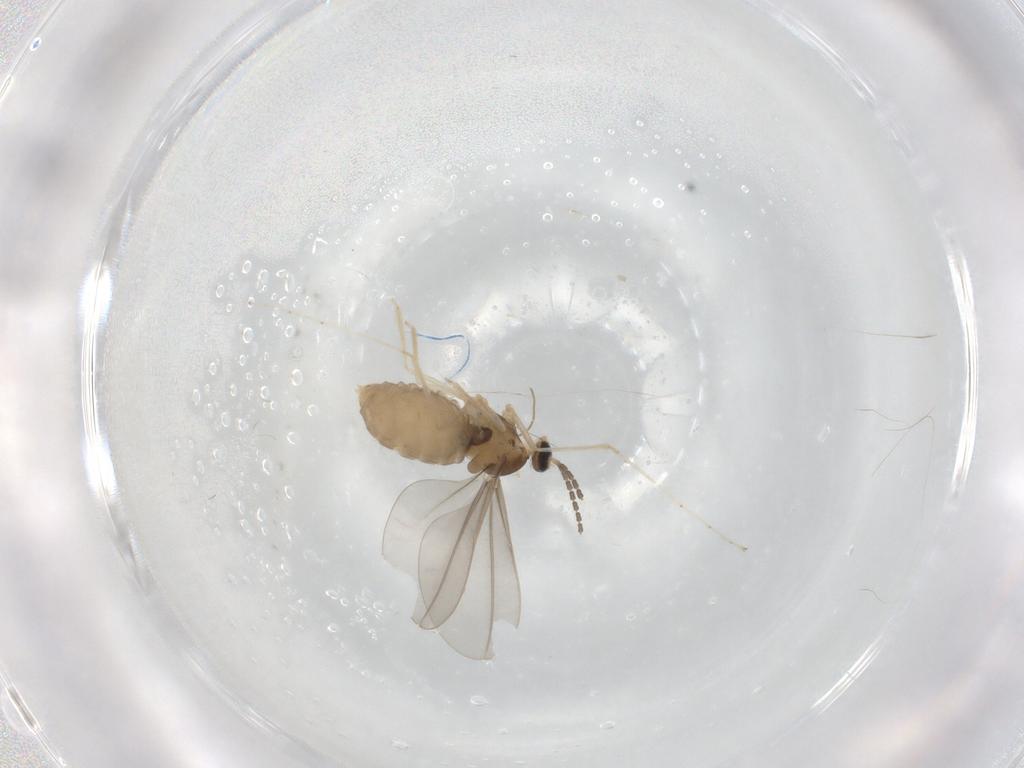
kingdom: Animalia
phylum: Arthropoda
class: Insecta
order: Diptera
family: Cecidomyiidae
